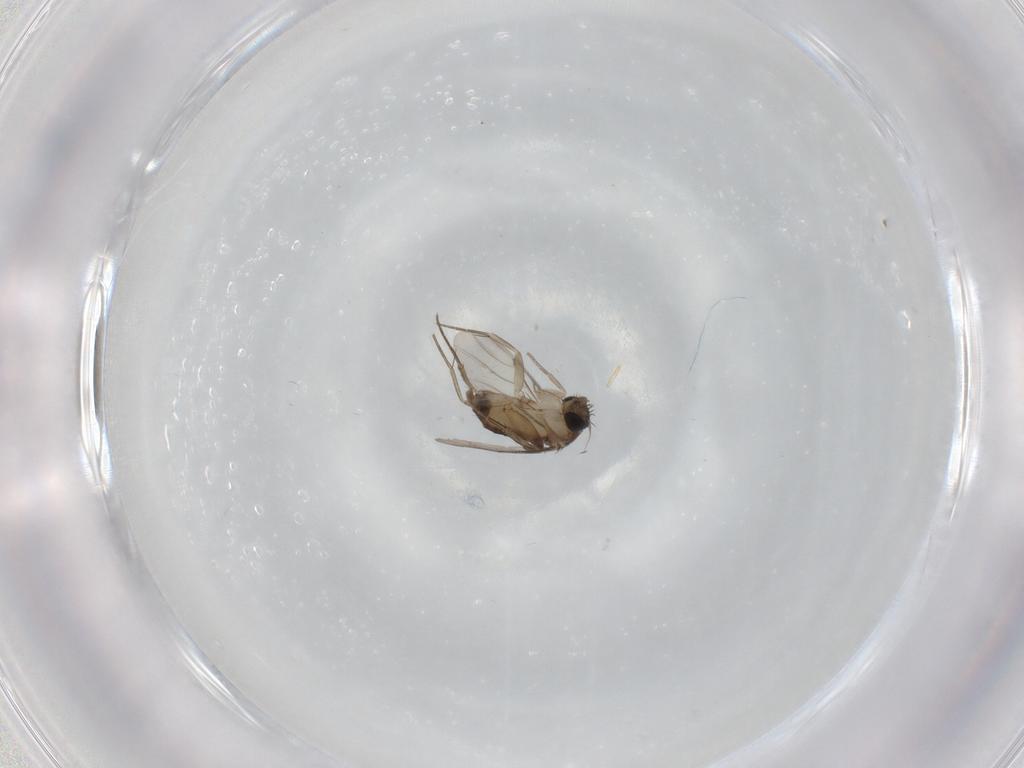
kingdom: Animalia
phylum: Arthropoda
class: Insecta
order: Diptera
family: Phoridae
